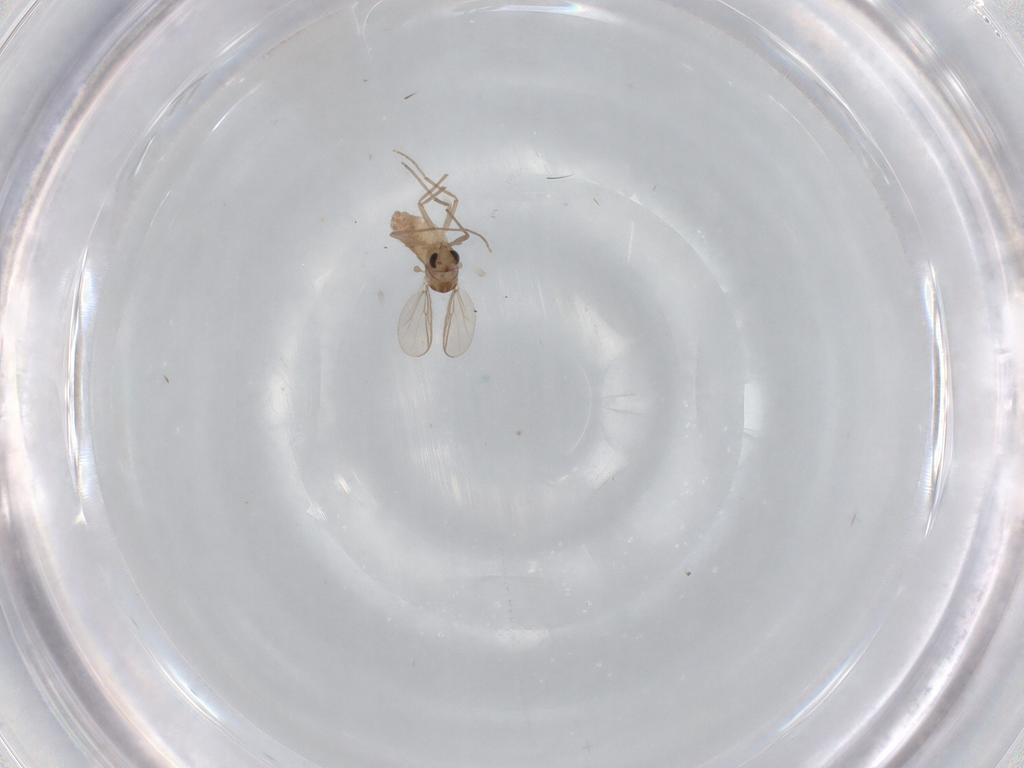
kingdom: Animalia
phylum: Arthropoda
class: Insecta
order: Diptera
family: Chironomidae
